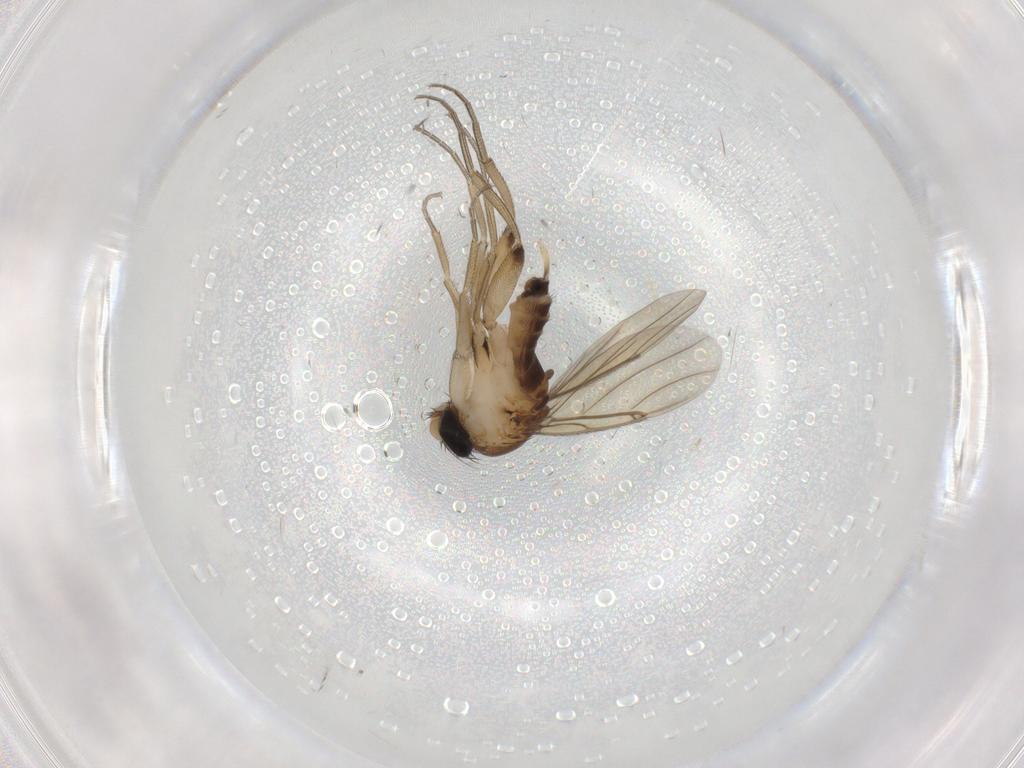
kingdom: Animalia
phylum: Arthropoda
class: Insecta
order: Diptera
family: Phoridae
